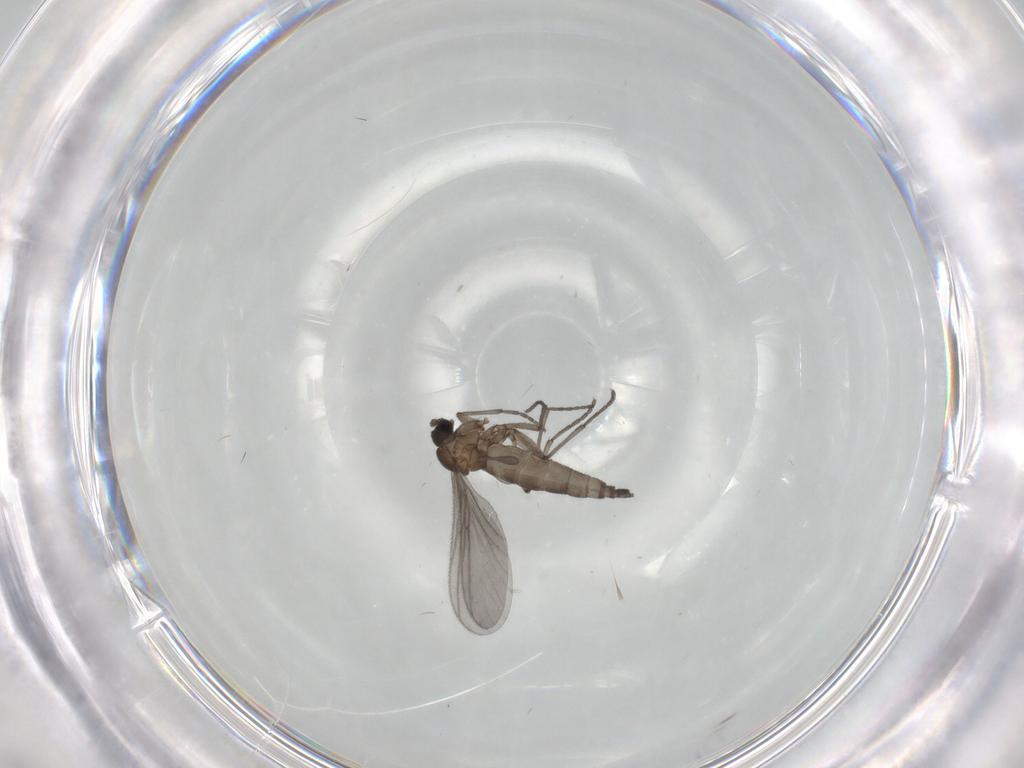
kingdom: Animalia
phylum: Arthropoda
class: Insecta
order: Diptera
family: Sciaridae
